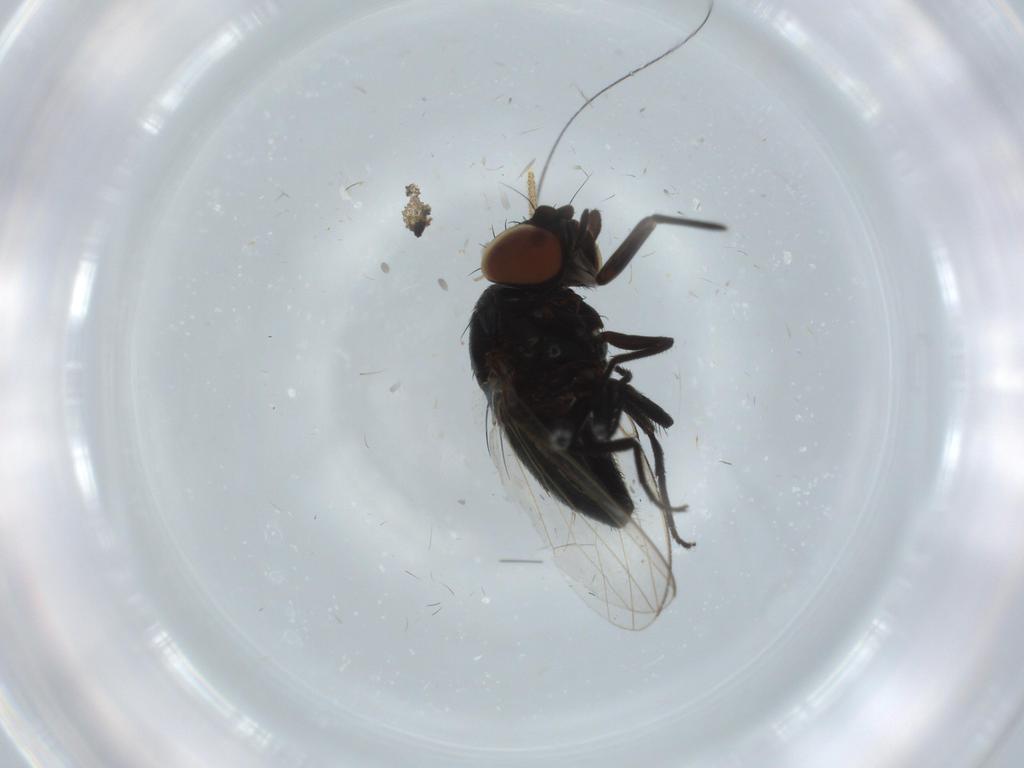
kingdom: Animalia
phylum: Arthropoda
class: Insecta
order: Diptera
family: Milichiidae
